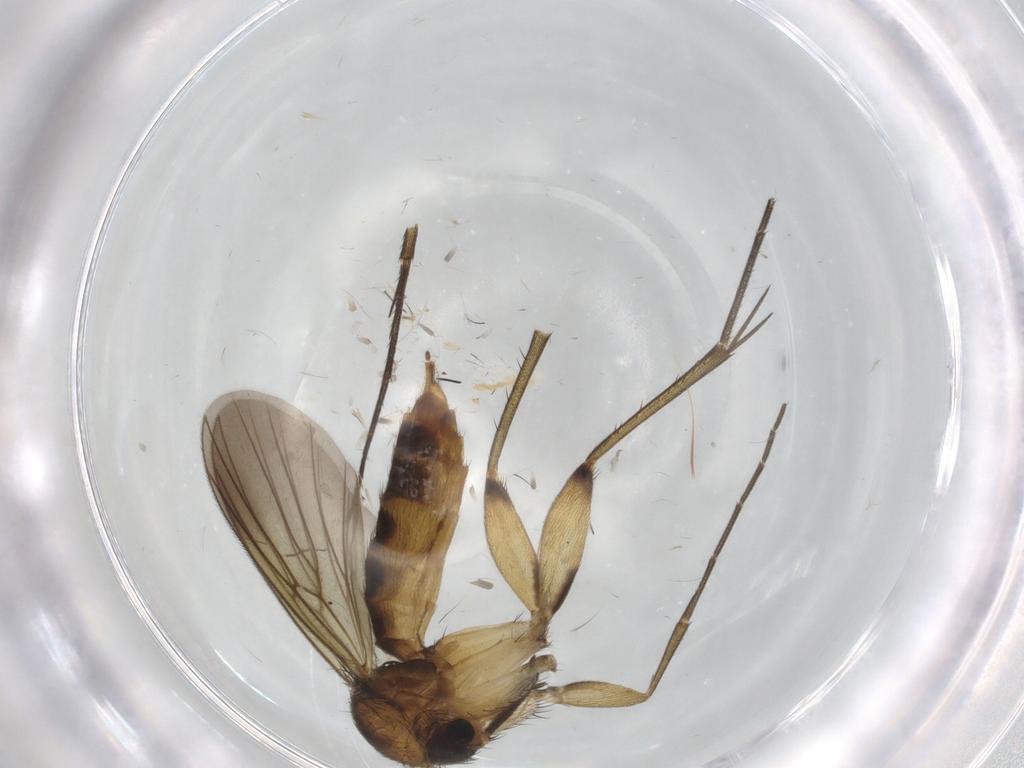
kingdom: Animalia
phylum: Arthropoda
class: Insecta
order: Diptera
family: Mycetophilidae
